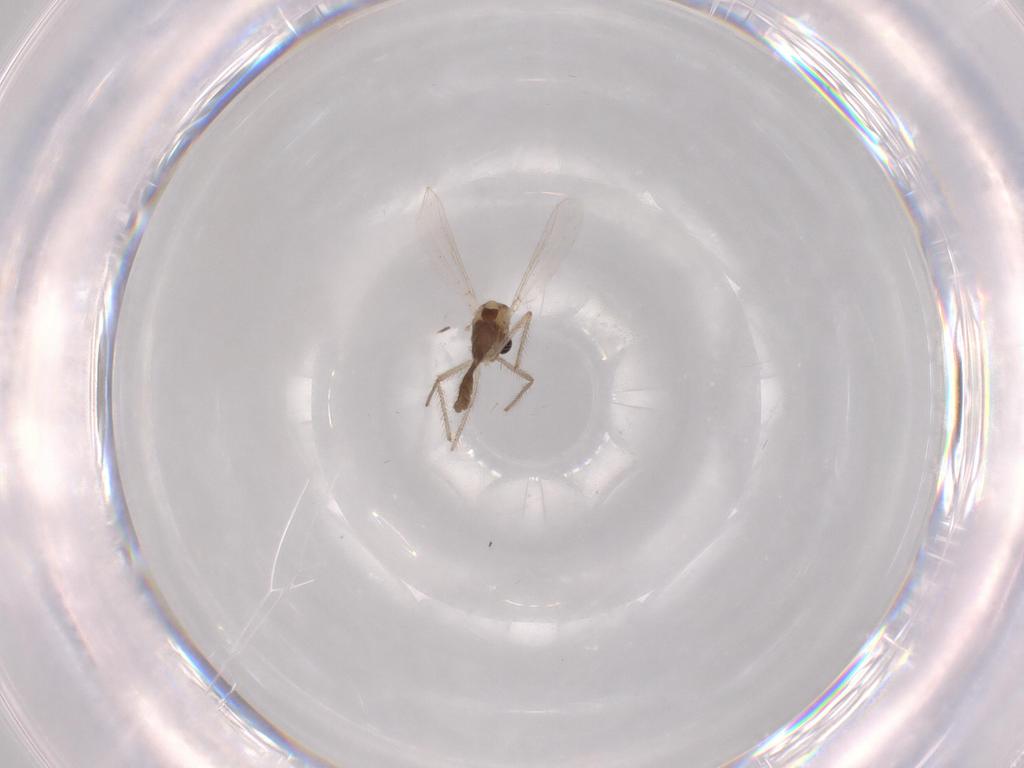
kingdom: Animalia
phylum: Arthropoda
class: Insecta
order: Diptera
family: Chironomidae
